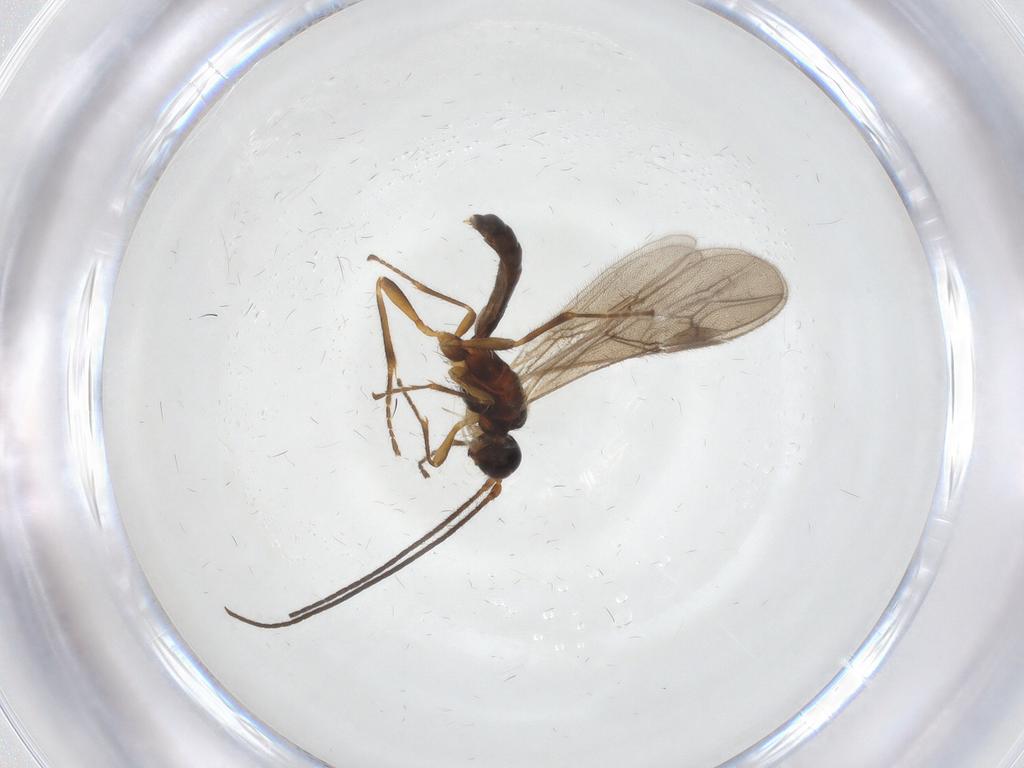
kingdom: Animalia
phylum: Arthropoda
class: Insecta
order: Hymenoptera
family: Braconidae
